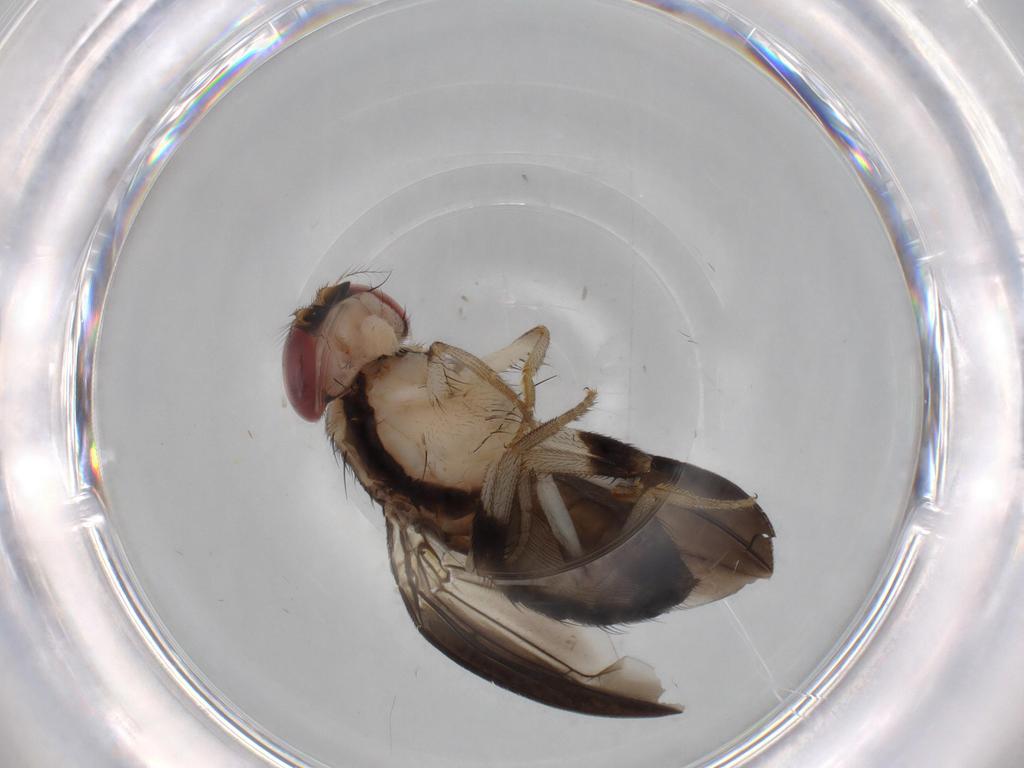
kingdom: Animalia
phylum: Arthropoda
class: Insecta
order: Diptera
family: Drosophilidae
